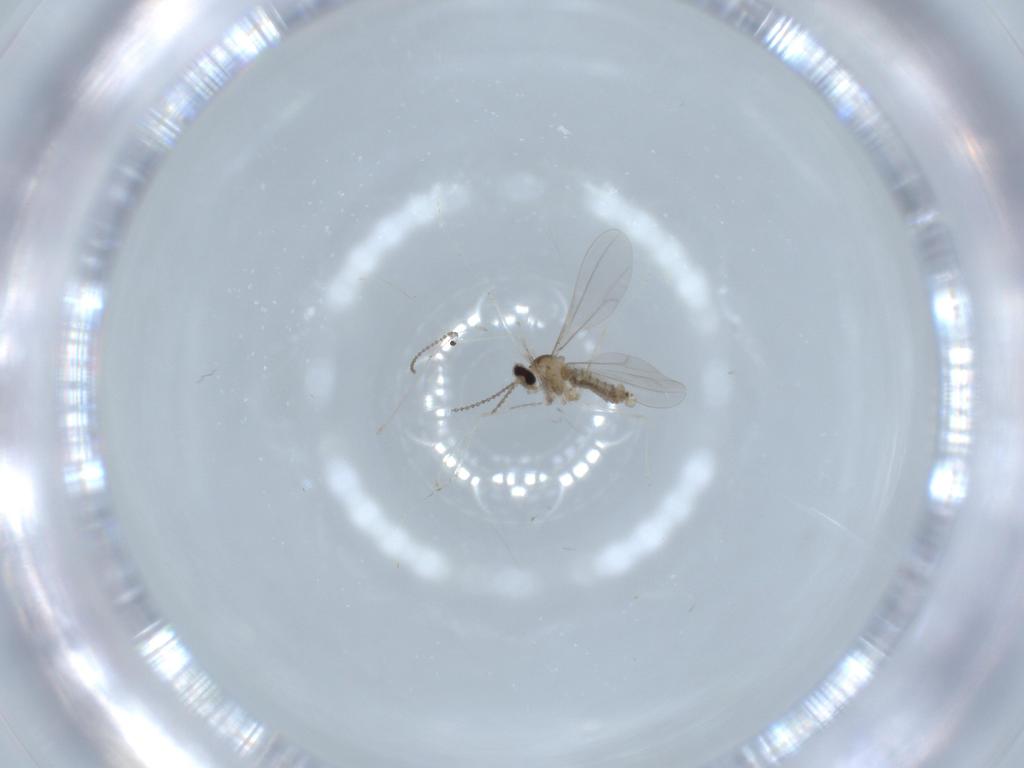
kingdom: Animalia
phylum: Arthropoda
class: Insecta
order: Diptera
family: Cecidomyiidae
